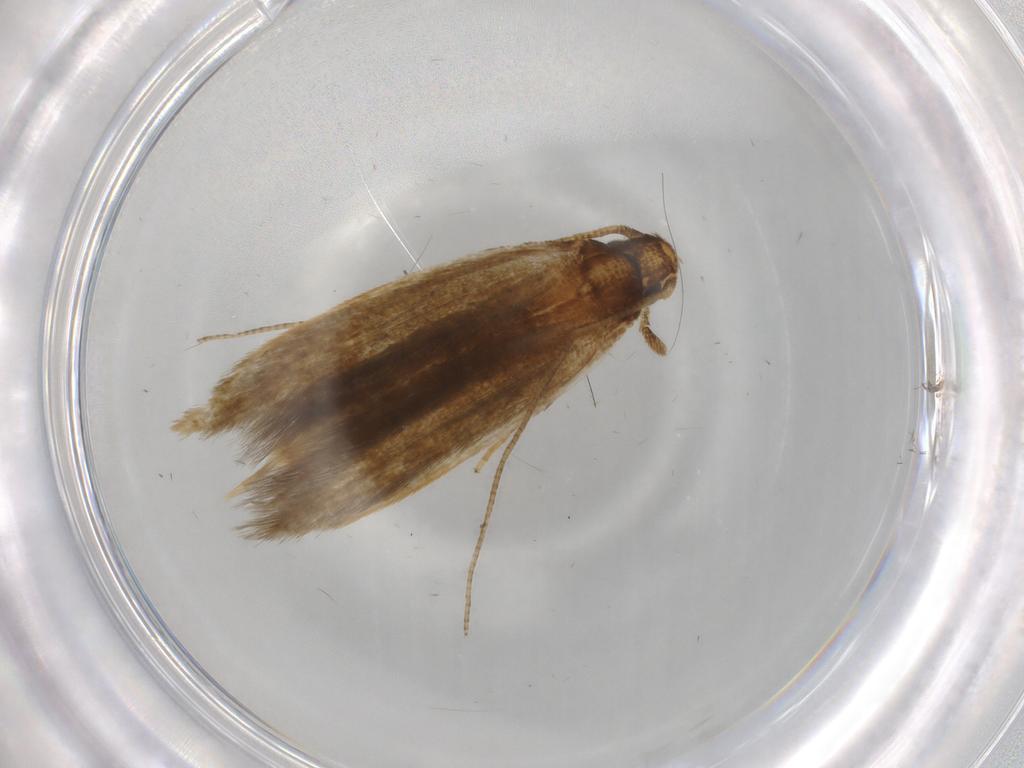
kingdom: Animalia
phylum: Arthropoda
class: Insecta
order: Lepidoptera
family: Tineidae
